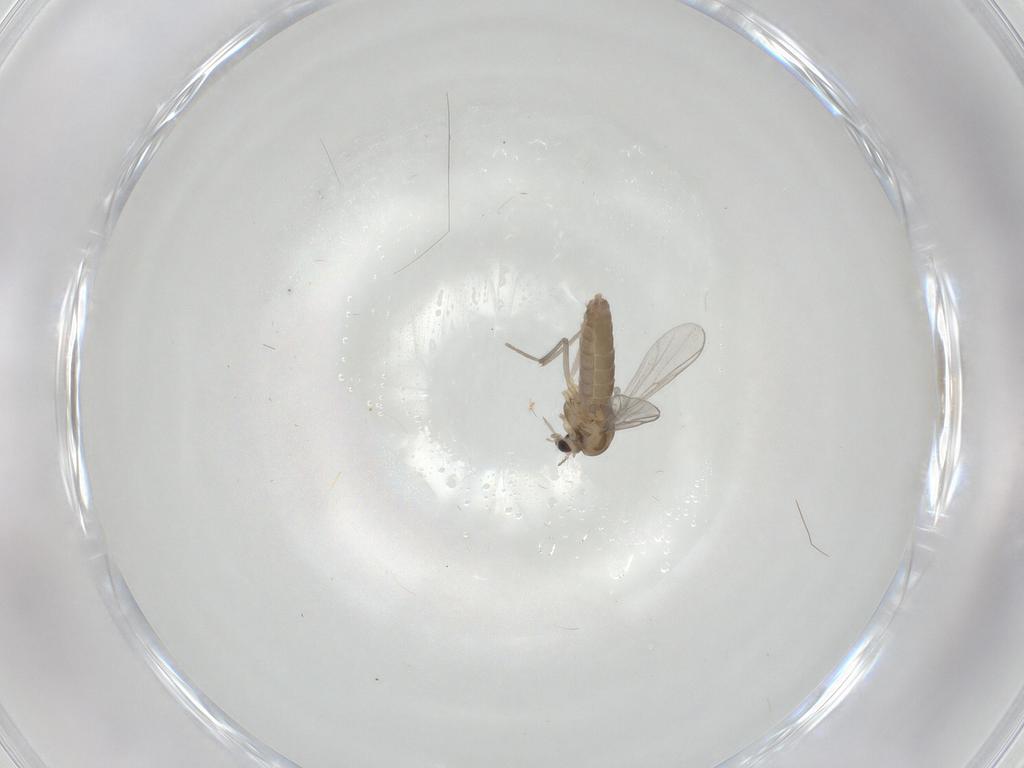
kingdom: Animalia
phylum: Arthropoda
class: Insecta
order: Diptera
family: Chironomidae
